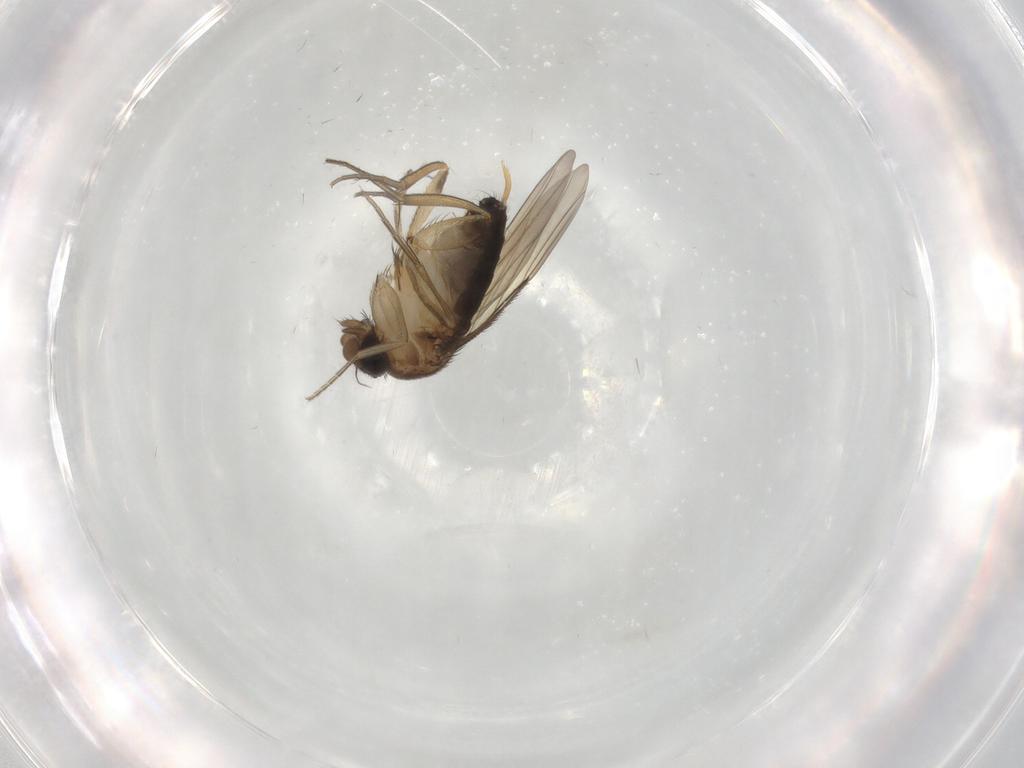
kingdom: Animalia
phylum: Arthropoda
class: Insecta
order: Diptera
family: Phoridae
